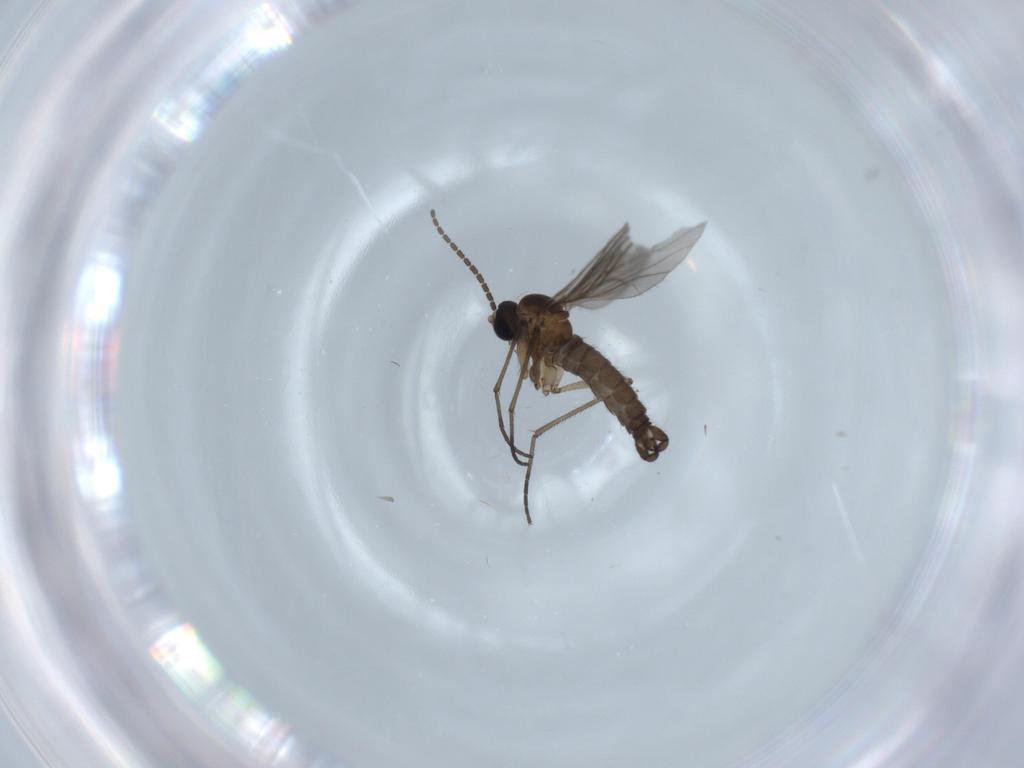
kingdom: Animalia
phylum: Arthropoda
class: Insecta
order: Diptera
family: Sciaridae
